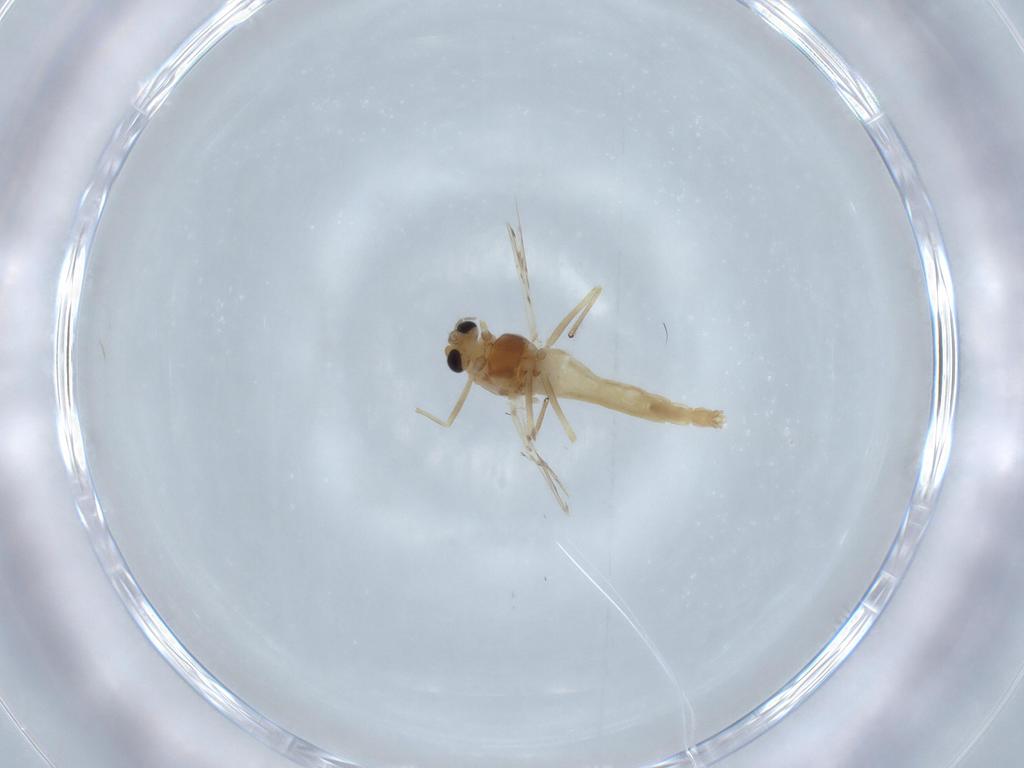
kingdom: Animalia
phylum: Arthropoda
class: Insecta
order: Diptera
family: Chironomidae
